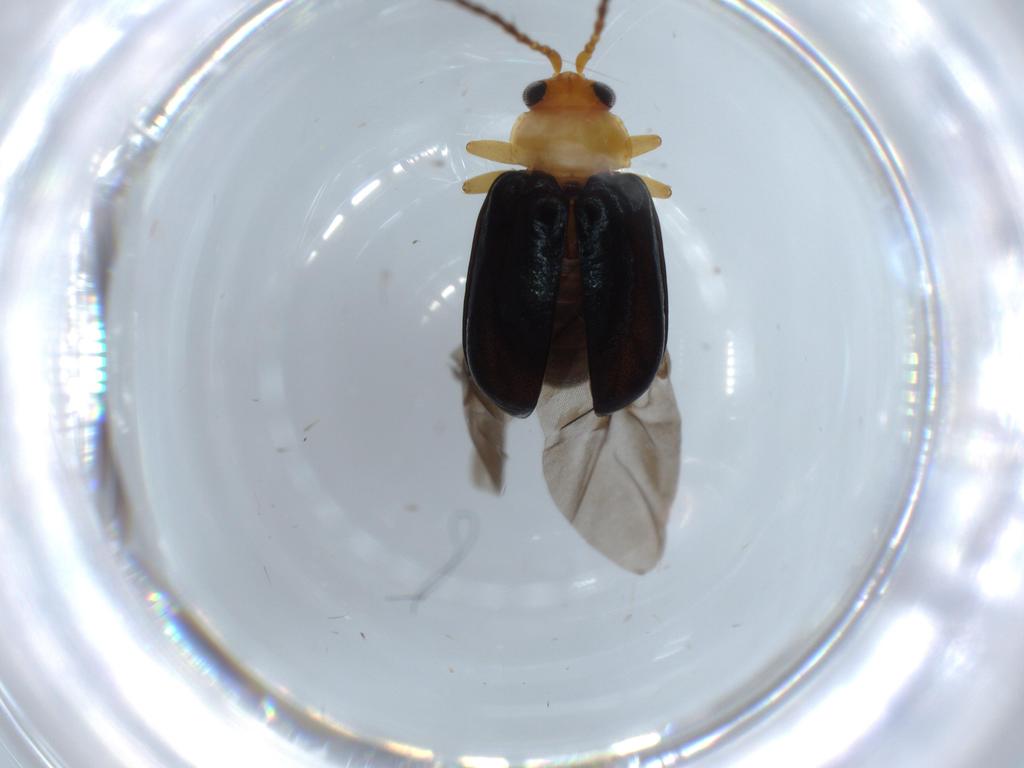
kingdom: Animalia
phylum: Arthropoda
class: Insecta
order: Coleoptera
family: Chrysomelidae
